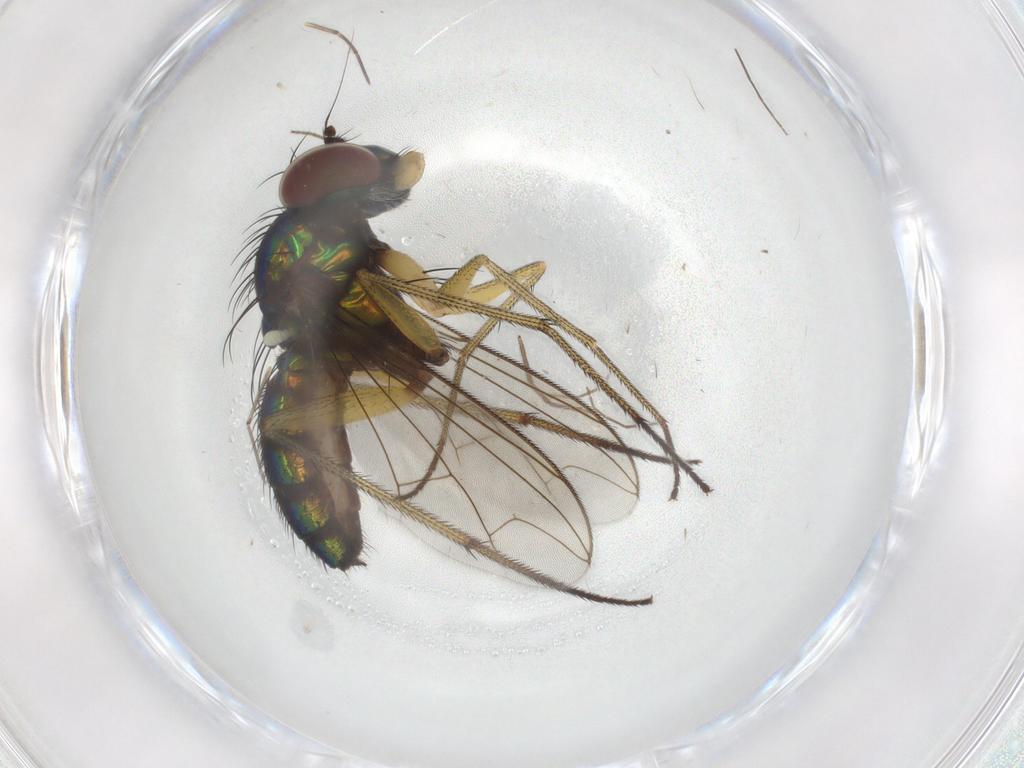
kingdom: Animalia
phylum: Arthropoda
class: Insecta
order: Diptera
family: Dolichopodidae
